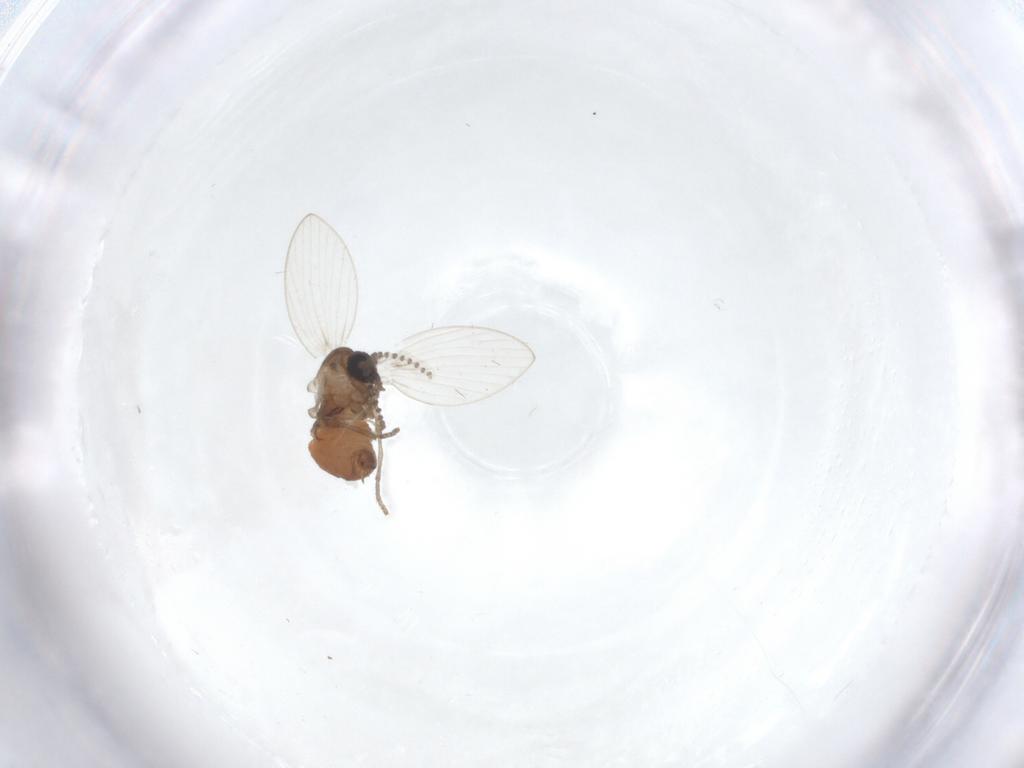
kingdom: Animalia
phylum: Arthropoda
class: Insecta
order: Diptera
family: Psychodidae
